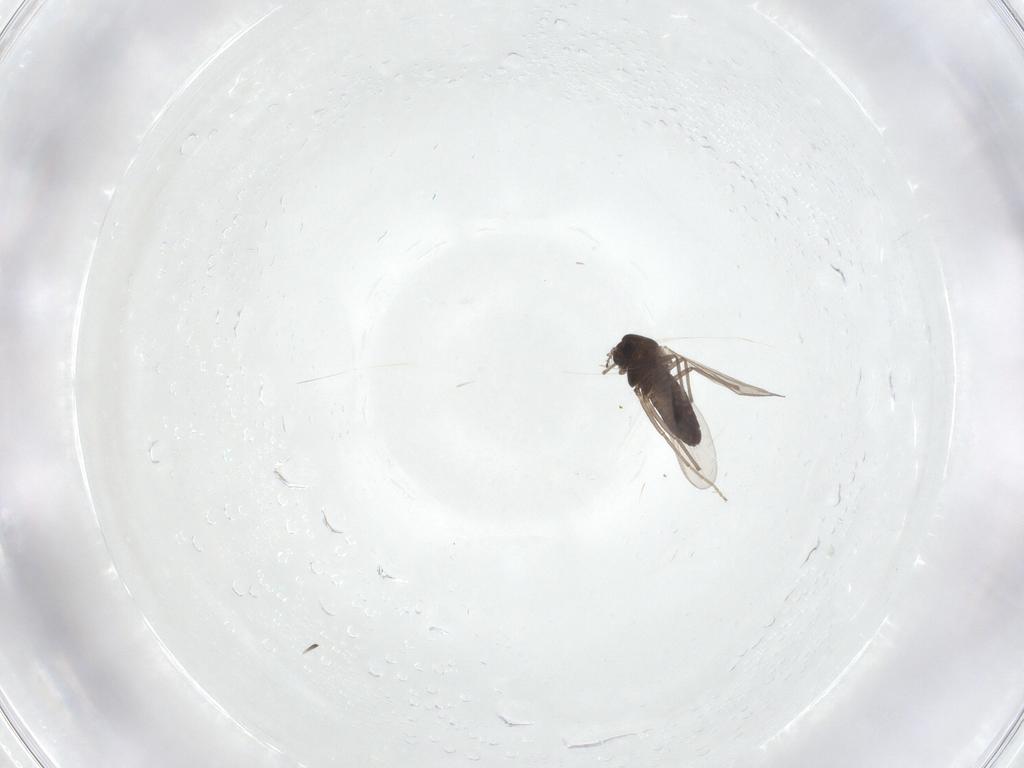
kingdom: Animalia
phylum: Arthropoda
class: Insecta
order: Diptera
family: Chironomidae
